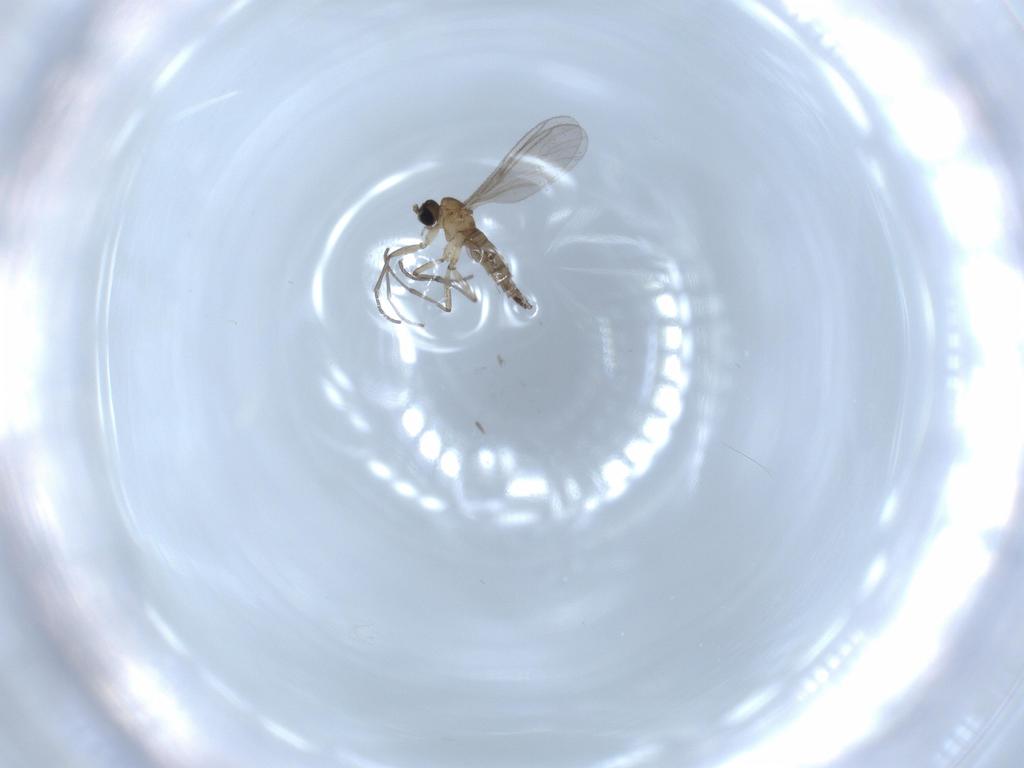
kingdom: Animalia
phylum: Arthropoda
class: Insecta
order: Diptera
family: Sciaridae
